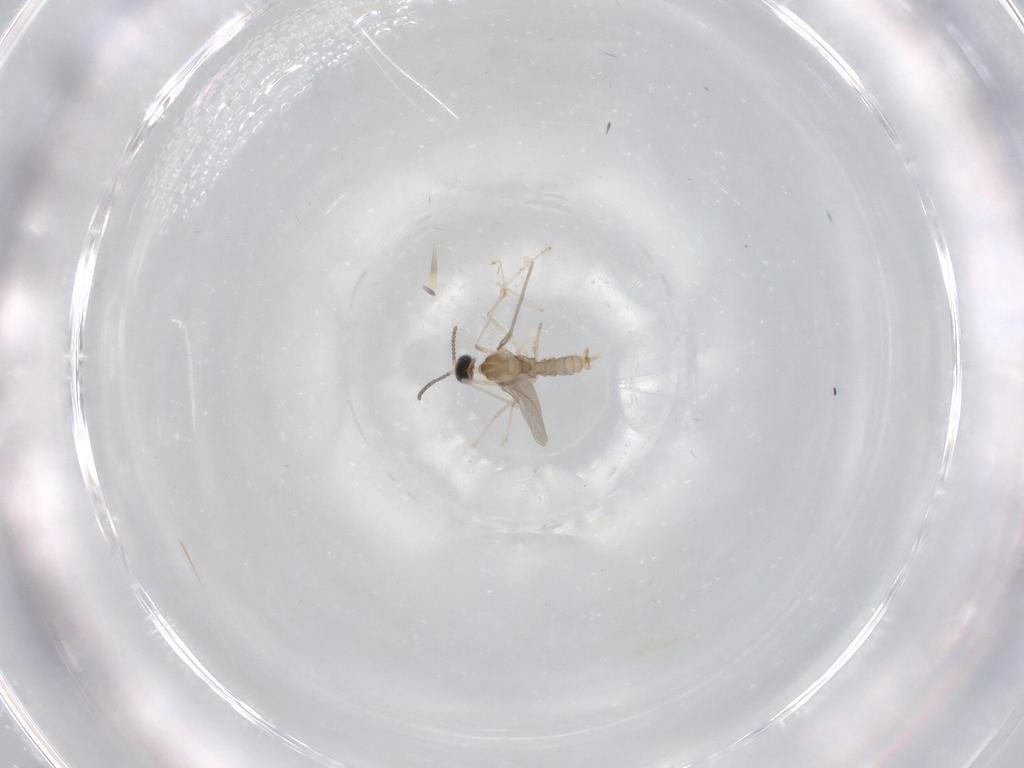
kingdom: Animalia
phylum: Arthropoda
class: Insecta
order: Diptera
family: Cecidomyiidae
